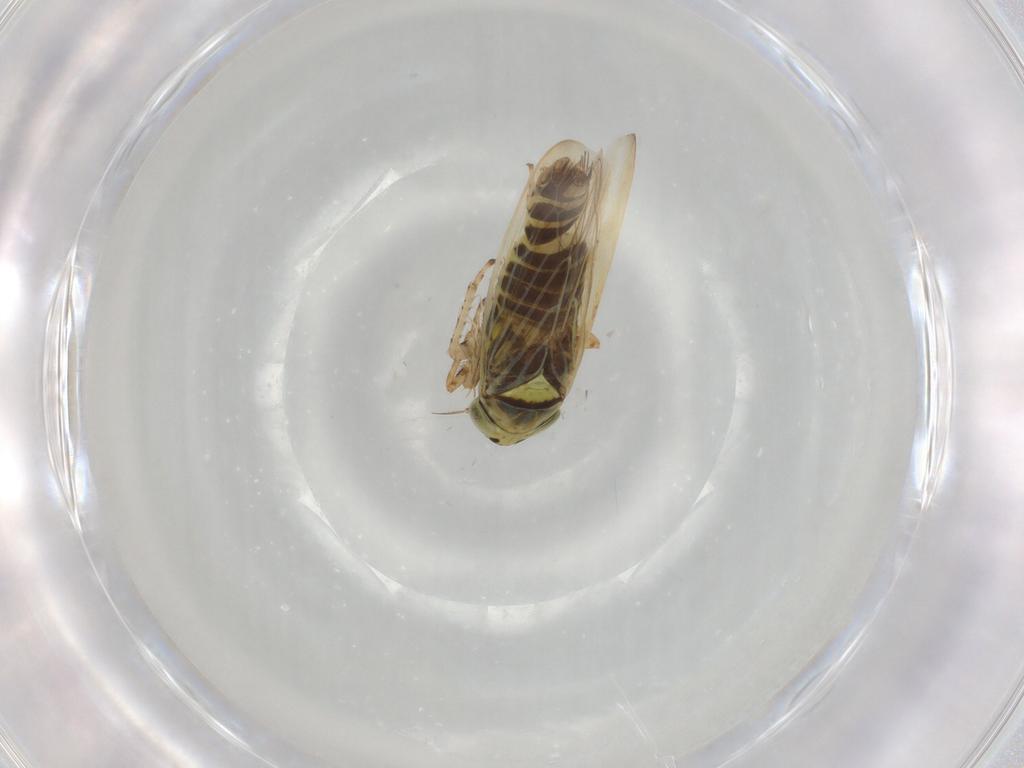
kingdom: Animalia
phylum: Arthropoda
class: Insecta
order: Hemiptera
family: Cicadellidae
